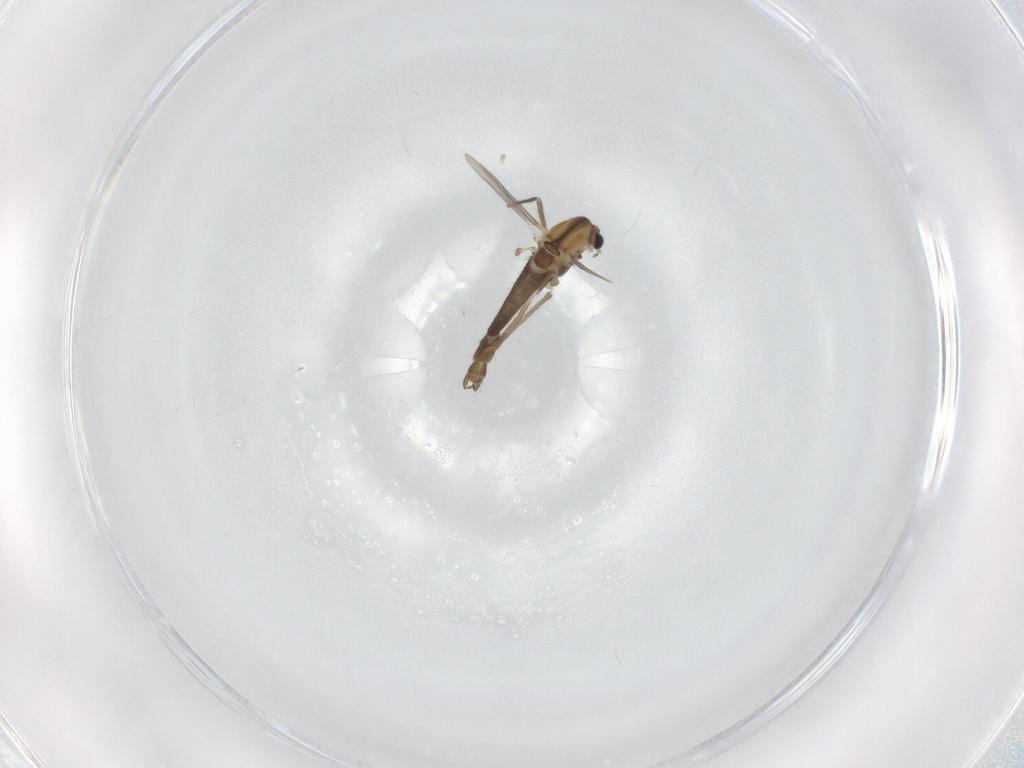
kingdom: Animalia
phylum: Arthropoda
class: Insecta
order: Diptera
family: Chironomidae
